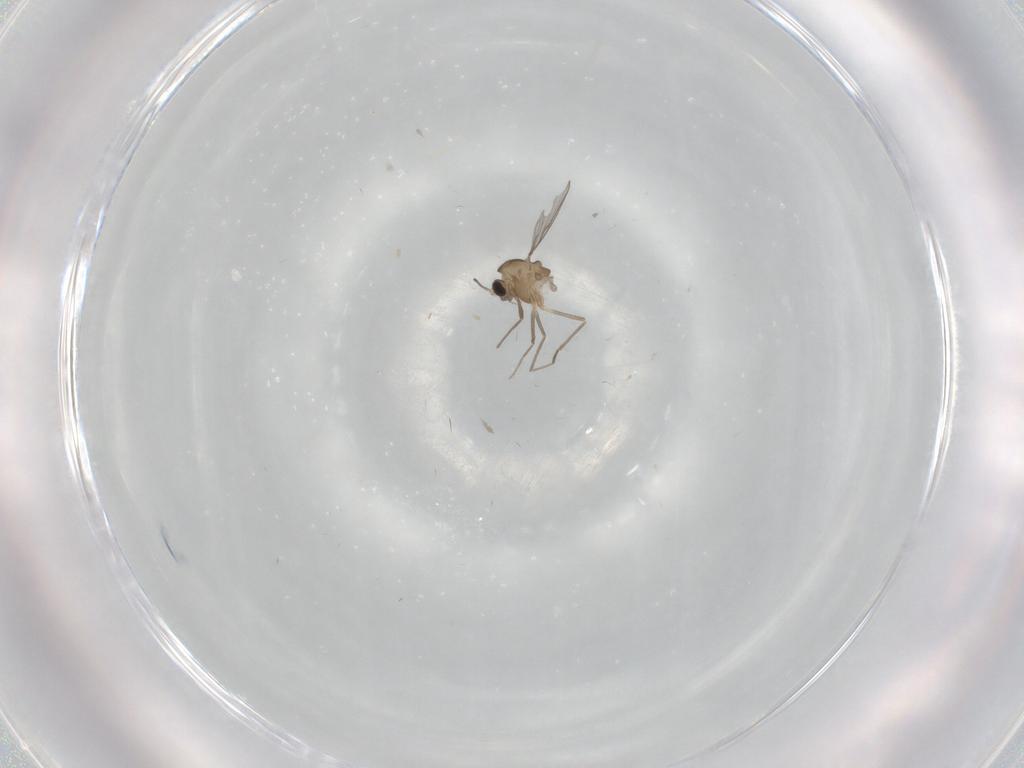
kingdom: Animalia
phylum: Arthropoda
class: Insecta
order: Diptera
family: Chironomidae
